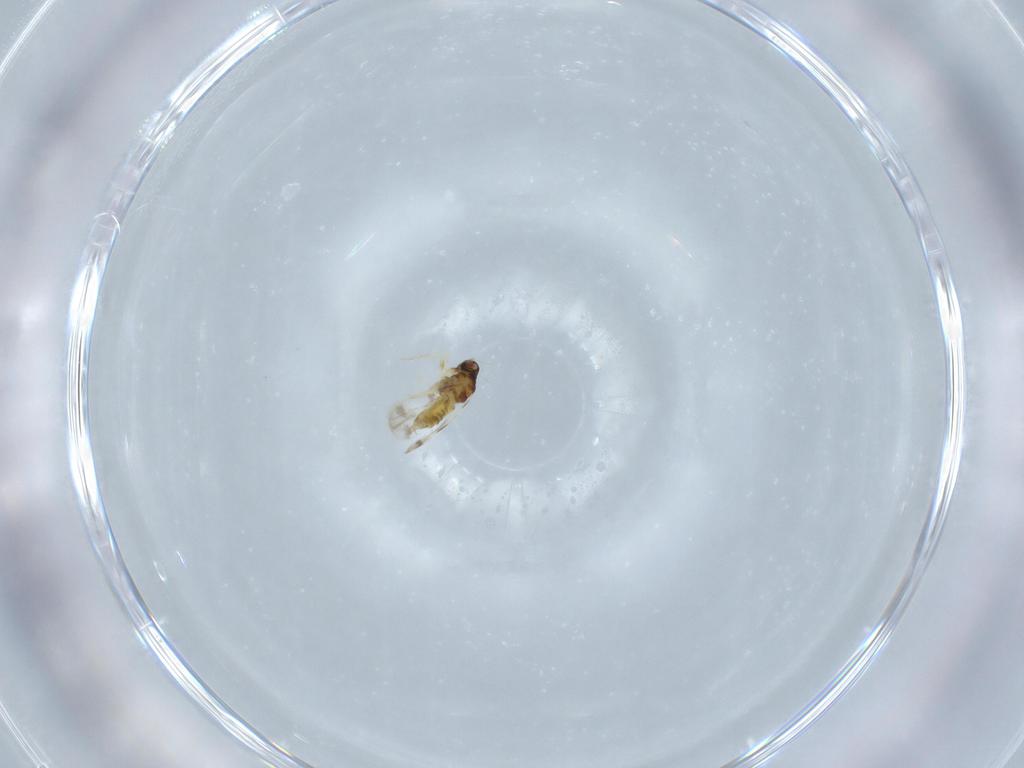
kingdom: Animalia
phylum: Arthropoda
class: Insecta
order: Hemiptera
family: Aleyrodidae
